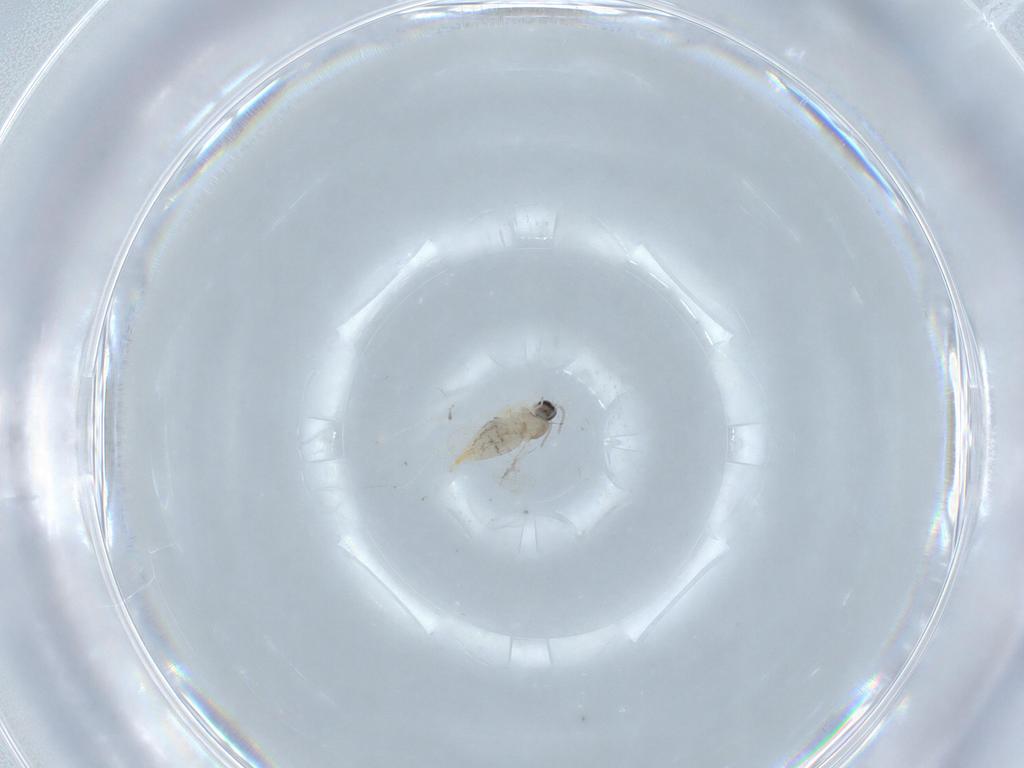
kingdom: Animalia
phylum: Arthropoda
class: Insecta
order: Diptera
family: Cecidomyiidae
